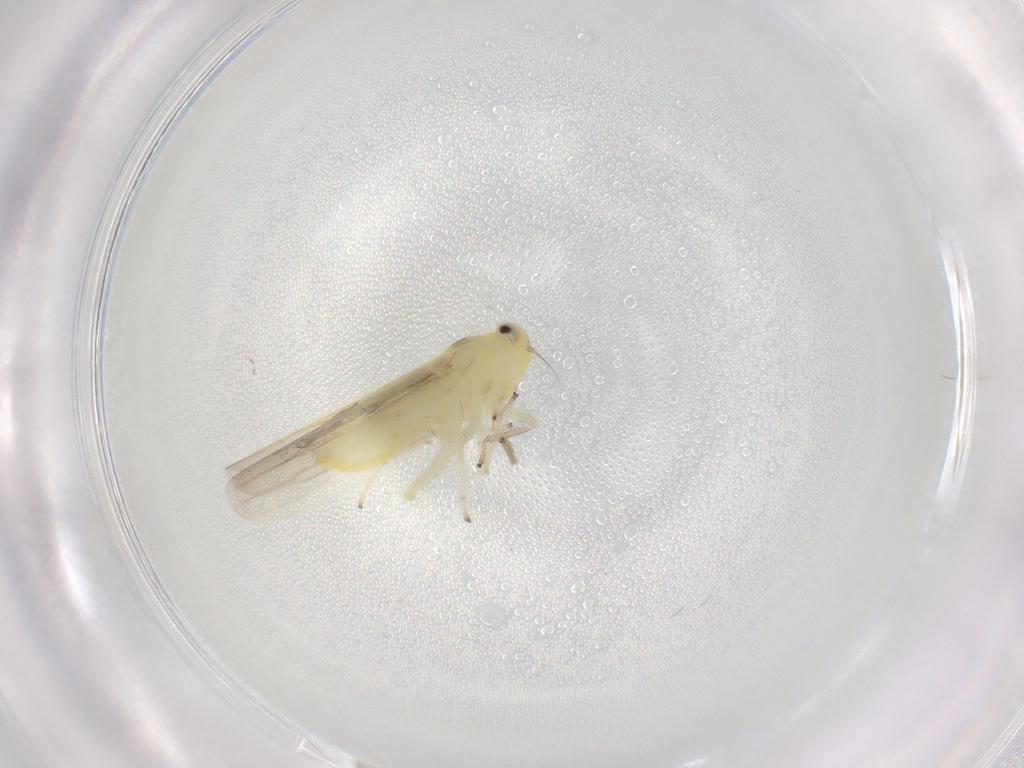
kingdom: Animalia
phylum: Arthropoda
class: Insecta
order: Hemiptera
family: Cicadellidae
